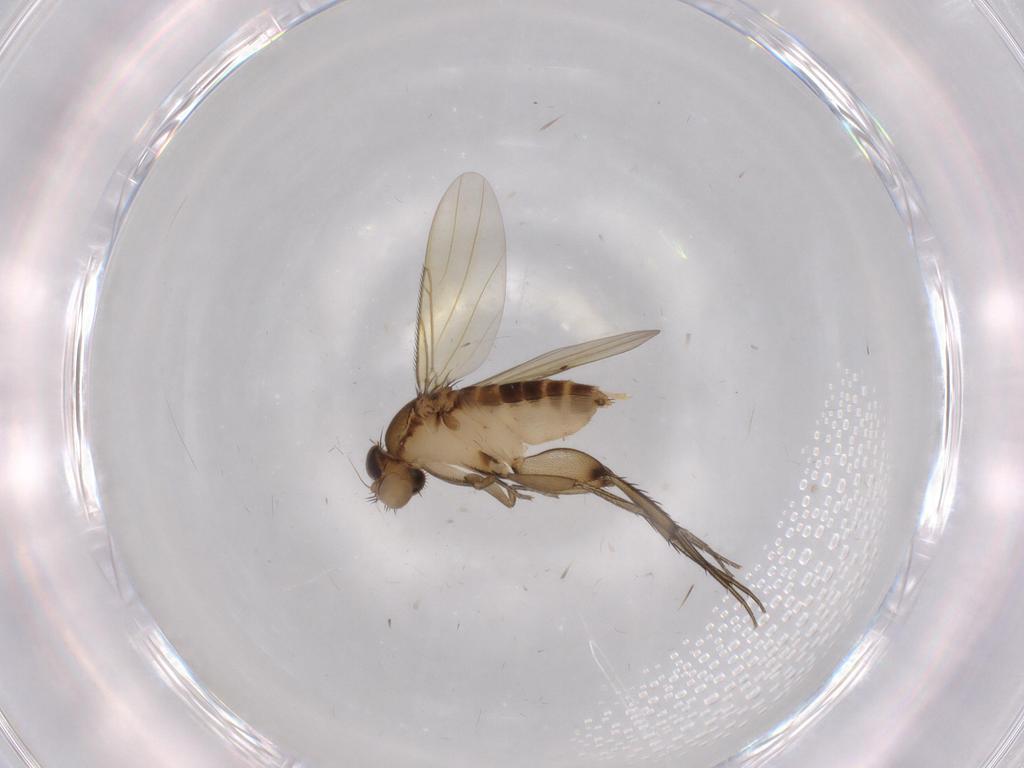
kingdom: Animalia
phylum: Arthropoda
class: Insecta
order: Diptera
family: Phoridae
